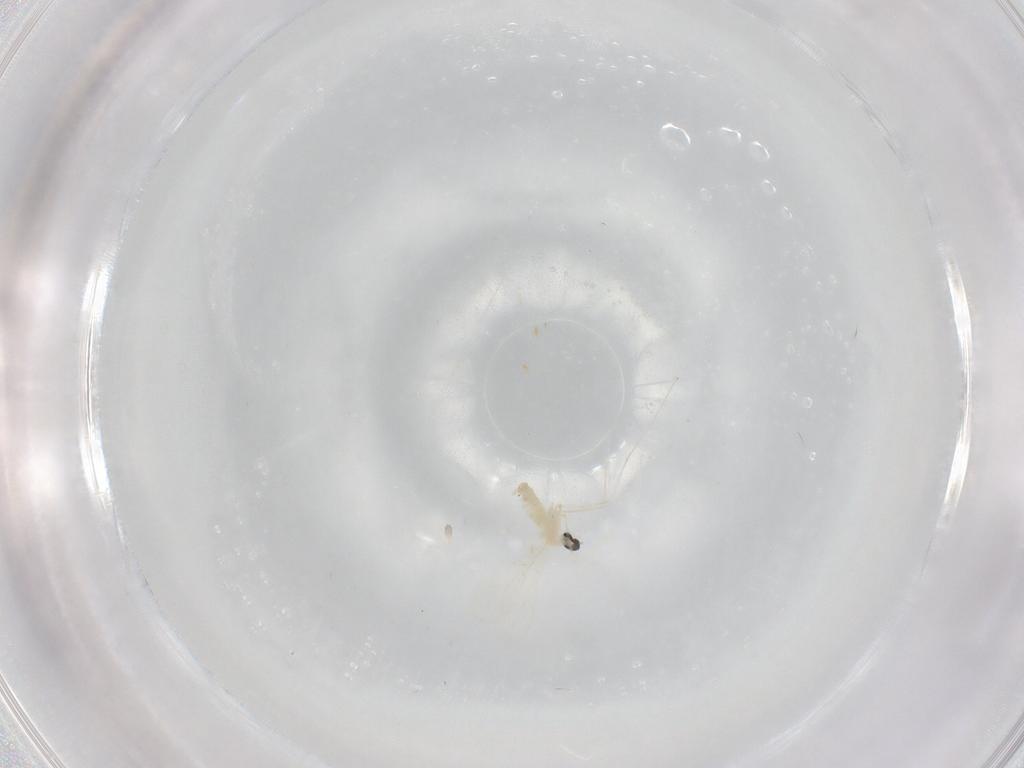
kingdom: Animalia
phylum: Arthropoda
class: Insecta
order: Diptera
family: Cecidomyiidae
